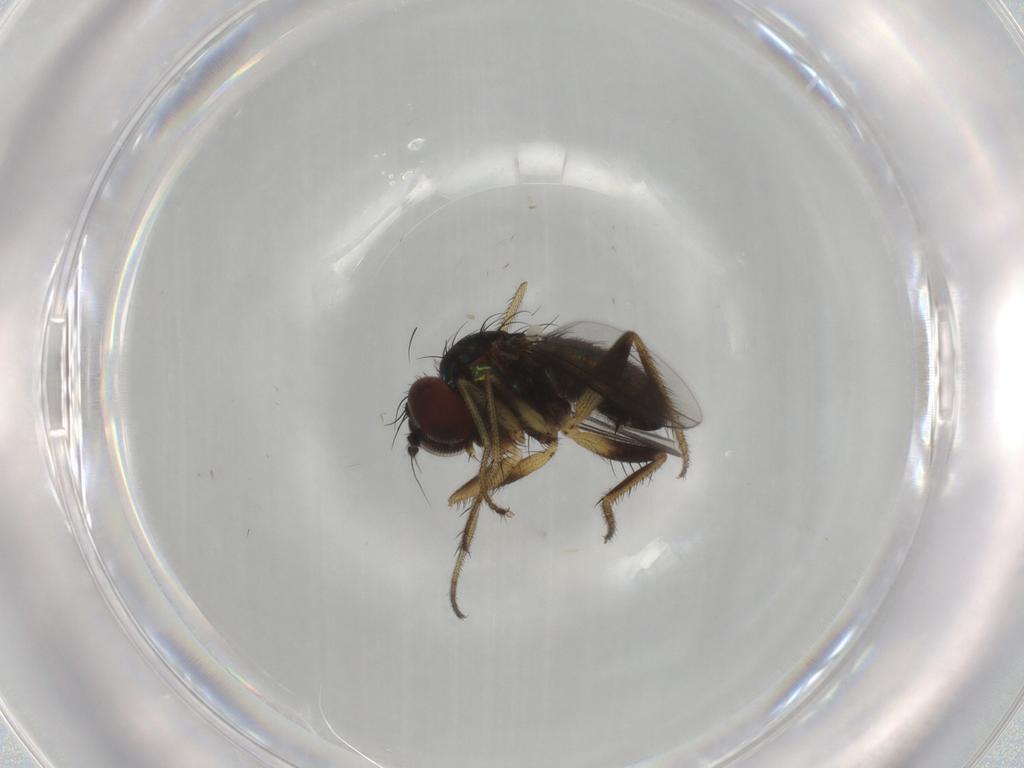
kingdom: Animalia
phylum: Arthropoda
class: Insecta
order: Diptera
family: Dolichopodidae
